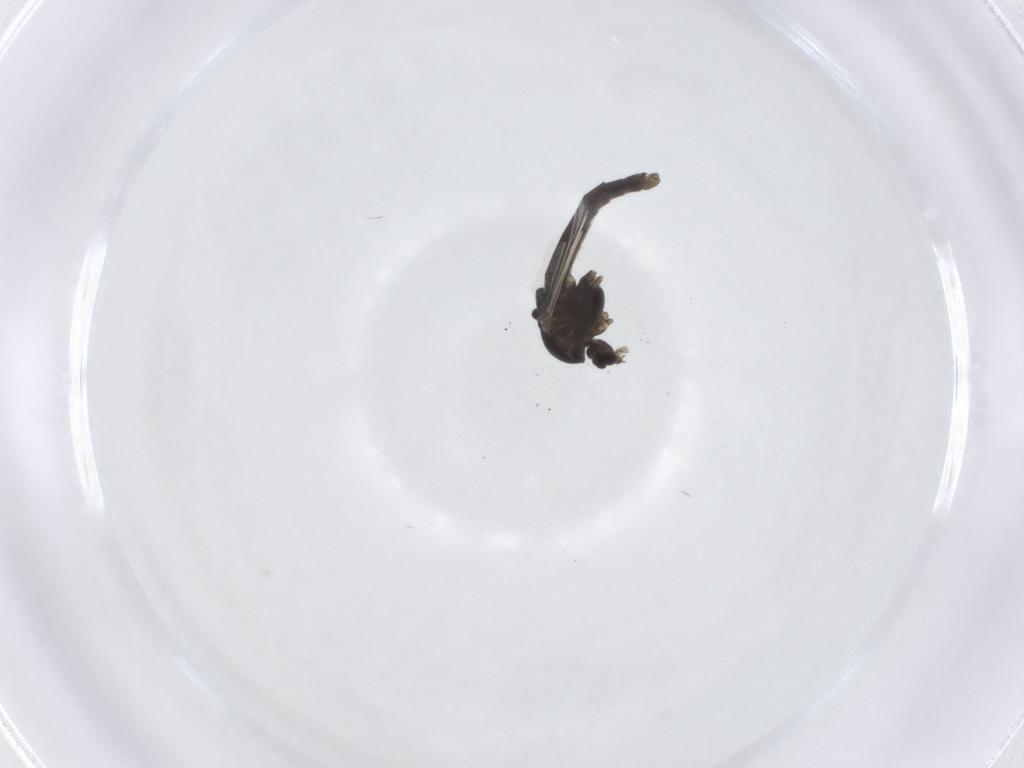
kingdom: Animalia
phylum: Arthropoda
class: Insecta
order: Diptera
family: Chironomidae
